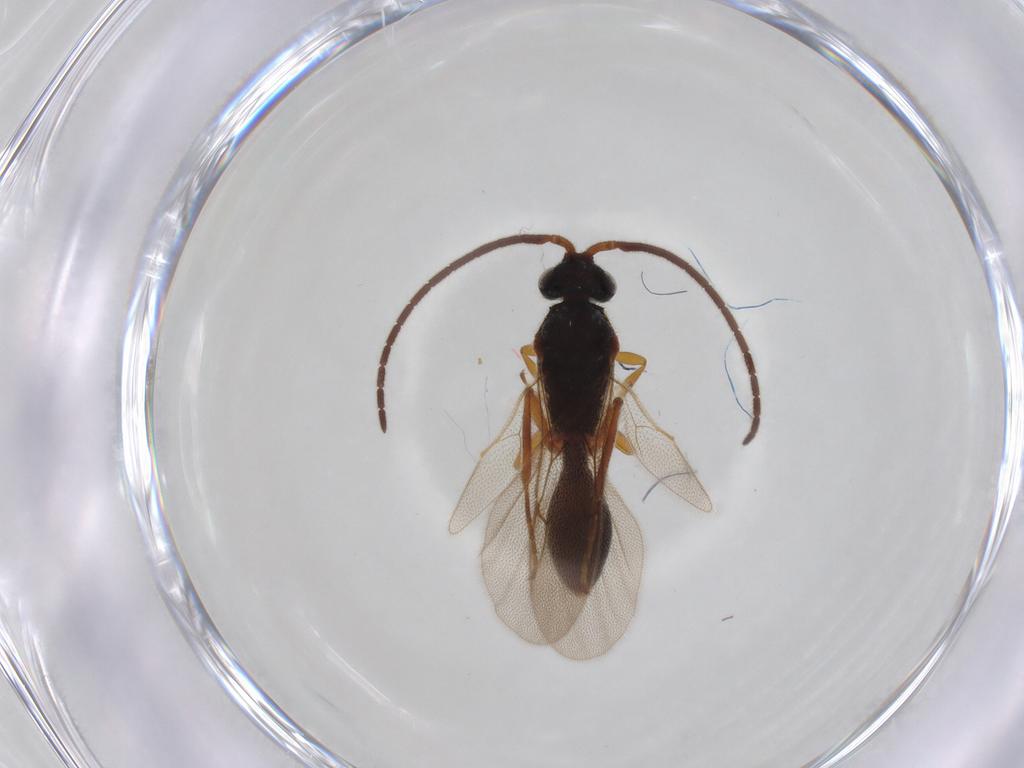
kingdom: Animalia
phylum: Arthropoda
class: Insecta
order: Hymenoptera
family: Diapriidae
